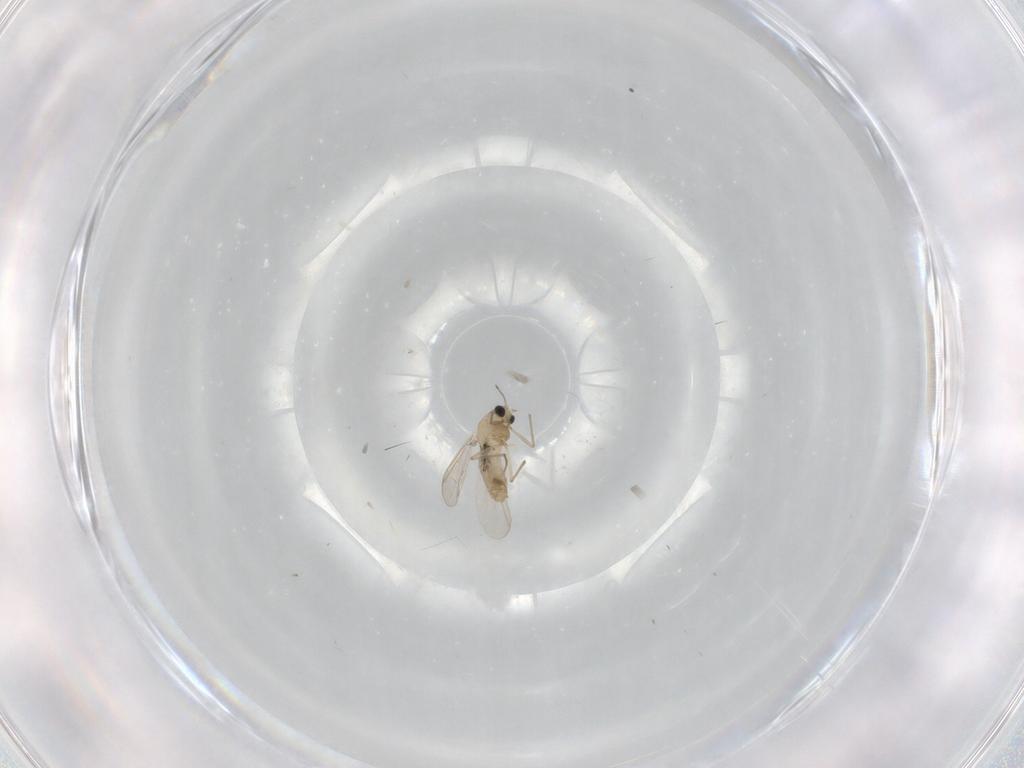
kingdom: Animalia
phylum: Arthropoda
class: Insecta
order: Diptera
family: Chironomidae
